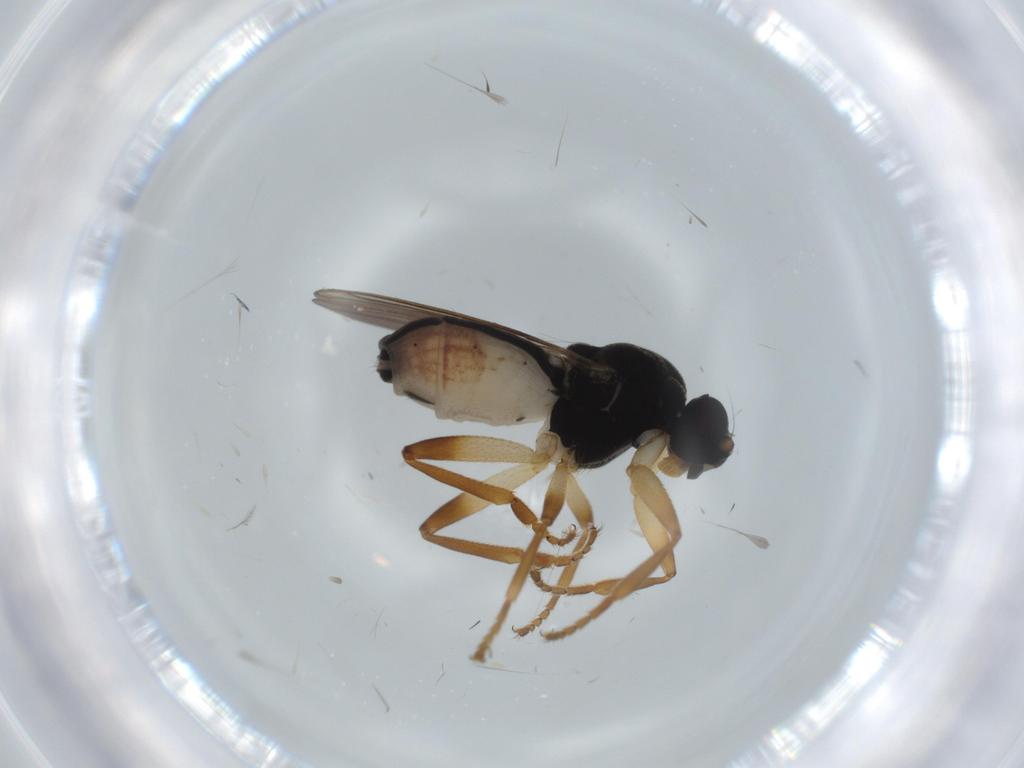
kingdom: Animalia
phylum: Arthropoda
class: Insecta
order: Diptera
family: Sphaeroceridae
